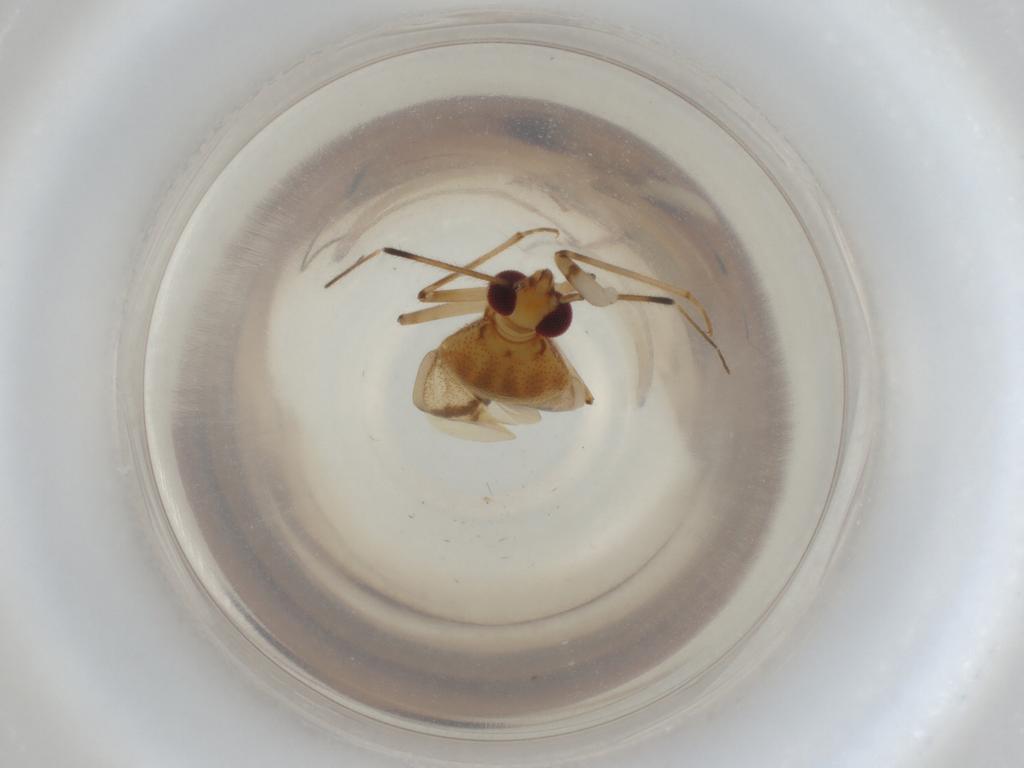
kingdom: Animalia
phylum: Arthropoda
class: Insecta
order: Hemiptera
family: Miridae
